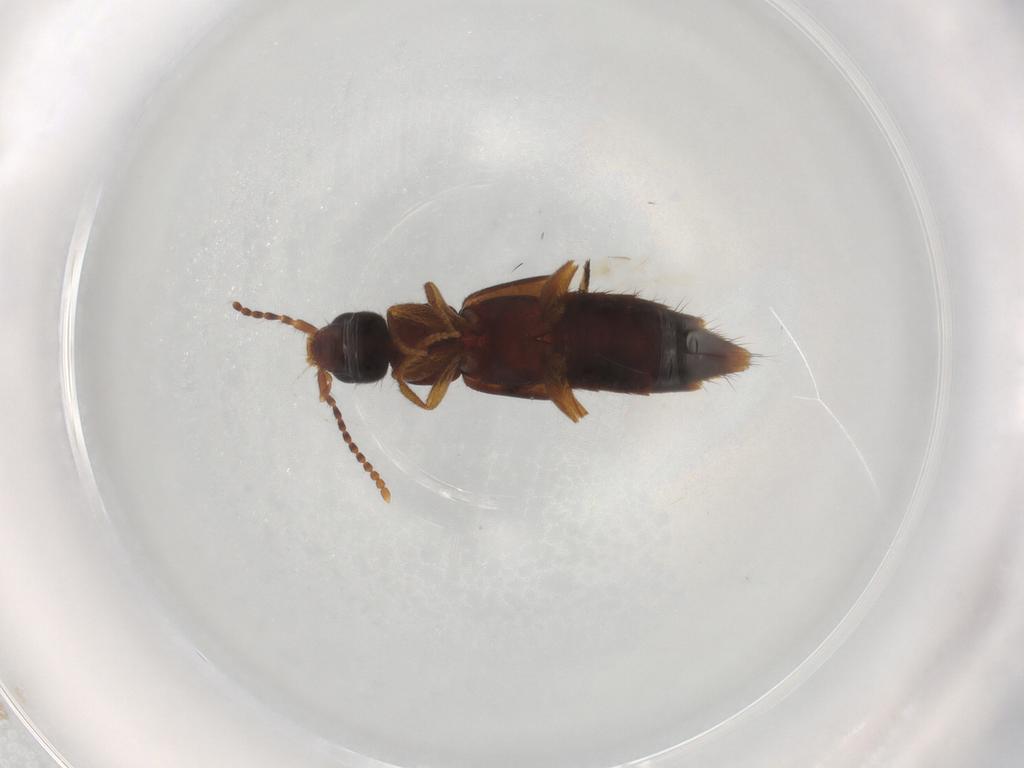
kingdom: Animalia
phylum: Arthropoda
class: Insecta
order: Coleoptera
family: Staphylinidae
